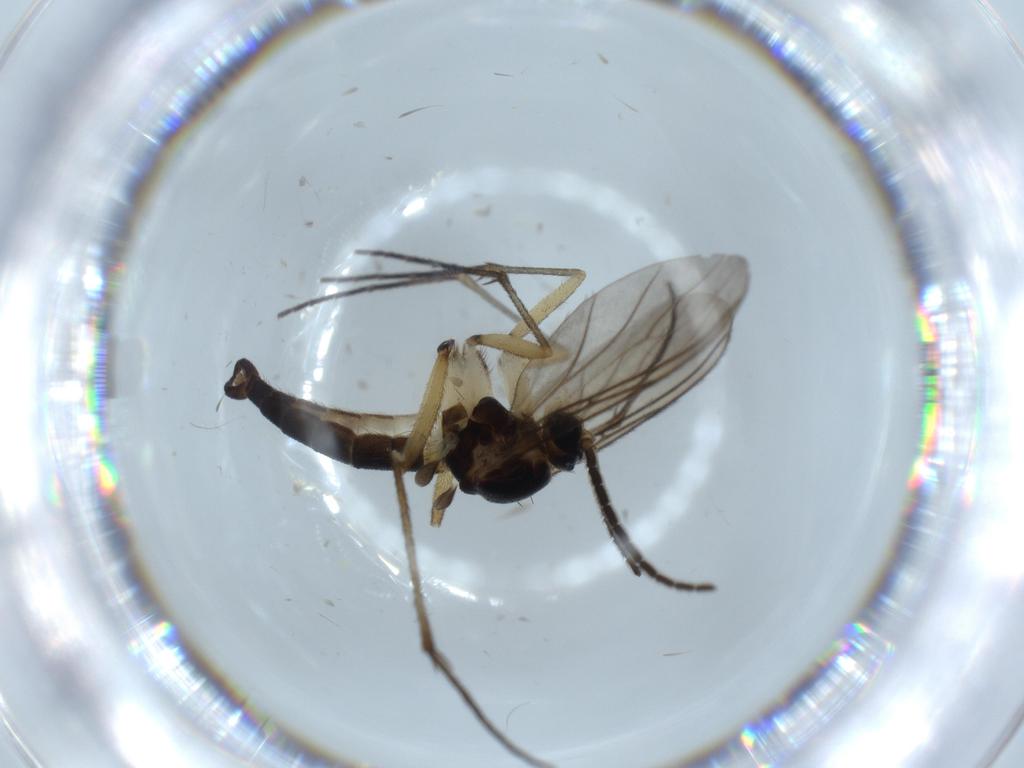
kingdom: Animalia
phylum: Arthropoda
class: Insecta
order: Diptera
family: Sciaridae
